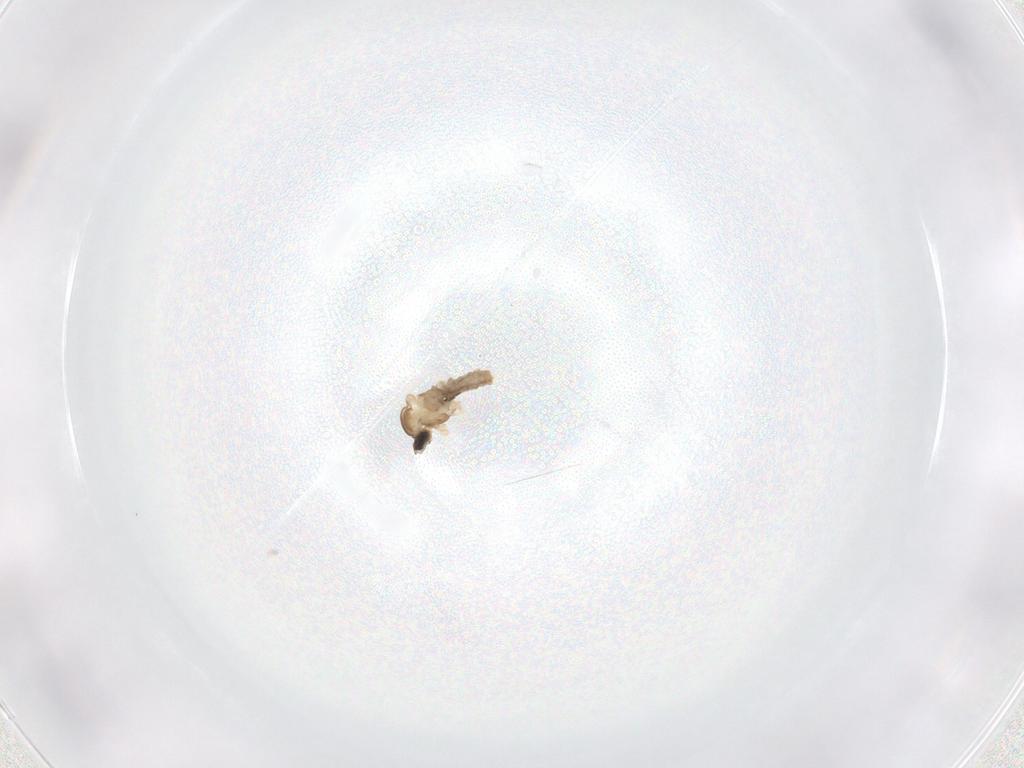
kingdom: Animalia
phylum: Arthropoda
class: Insecta
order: Diptera
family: Cecidomyiidae
